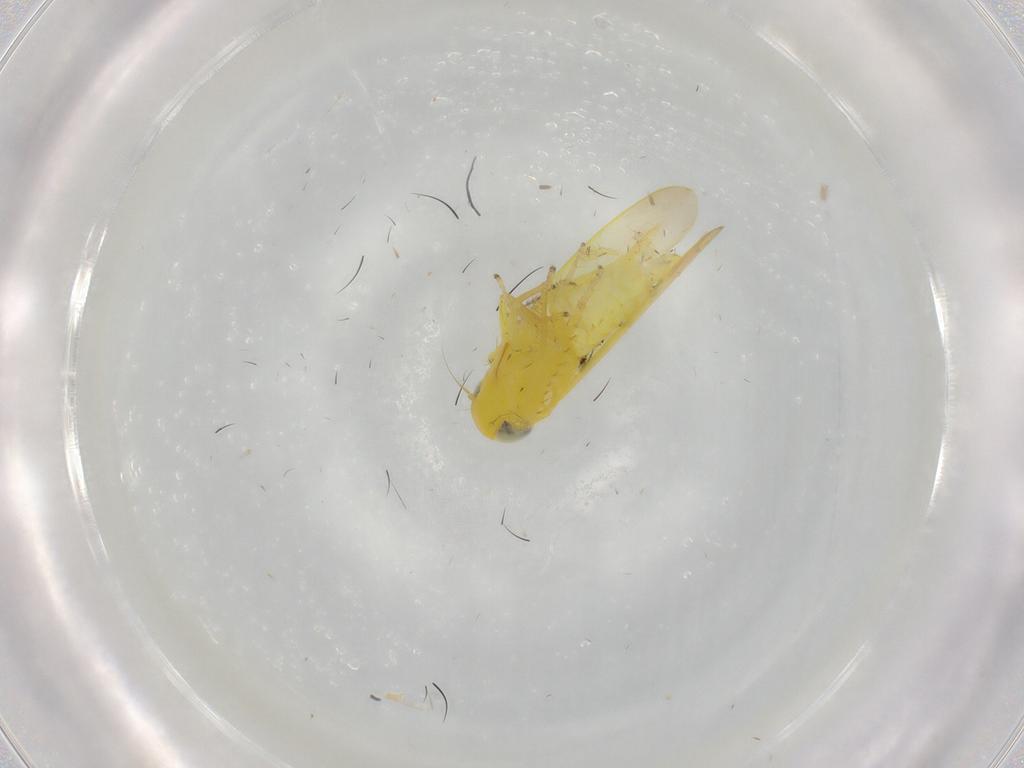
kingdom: Animalia
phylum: Arthropoda
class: Insecta
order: Hemiptera
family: Cicadellidae
